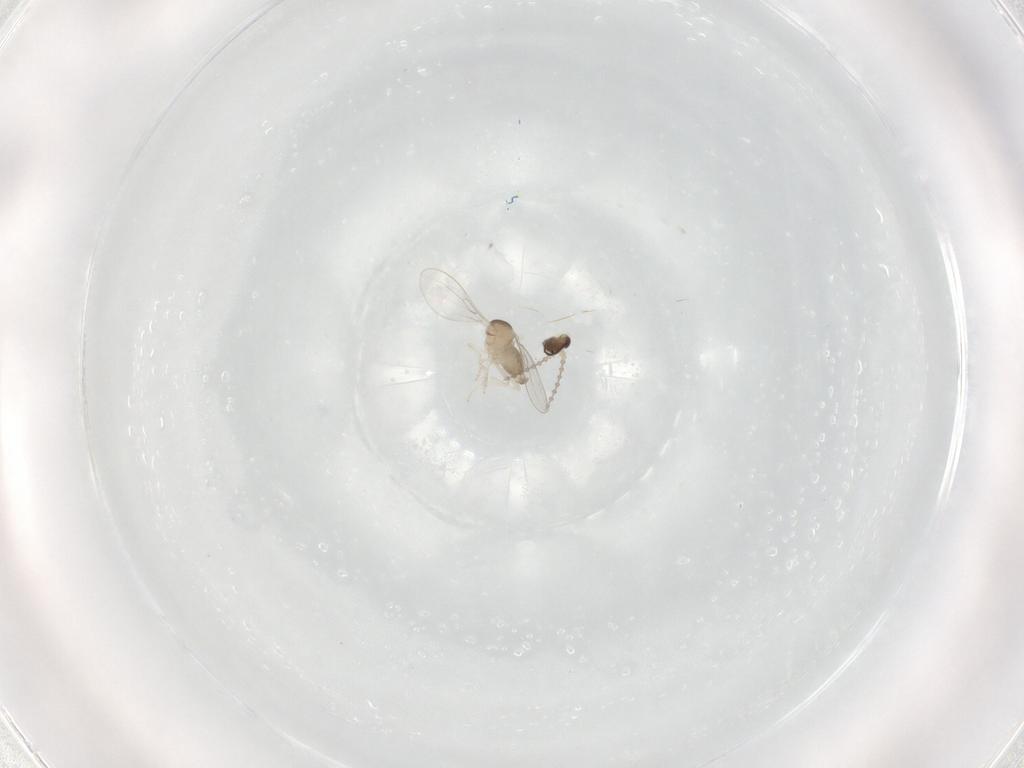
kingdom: Animalia
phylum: Arthropoda
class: Insecta
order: Diptera
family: Cecidomyiidae
